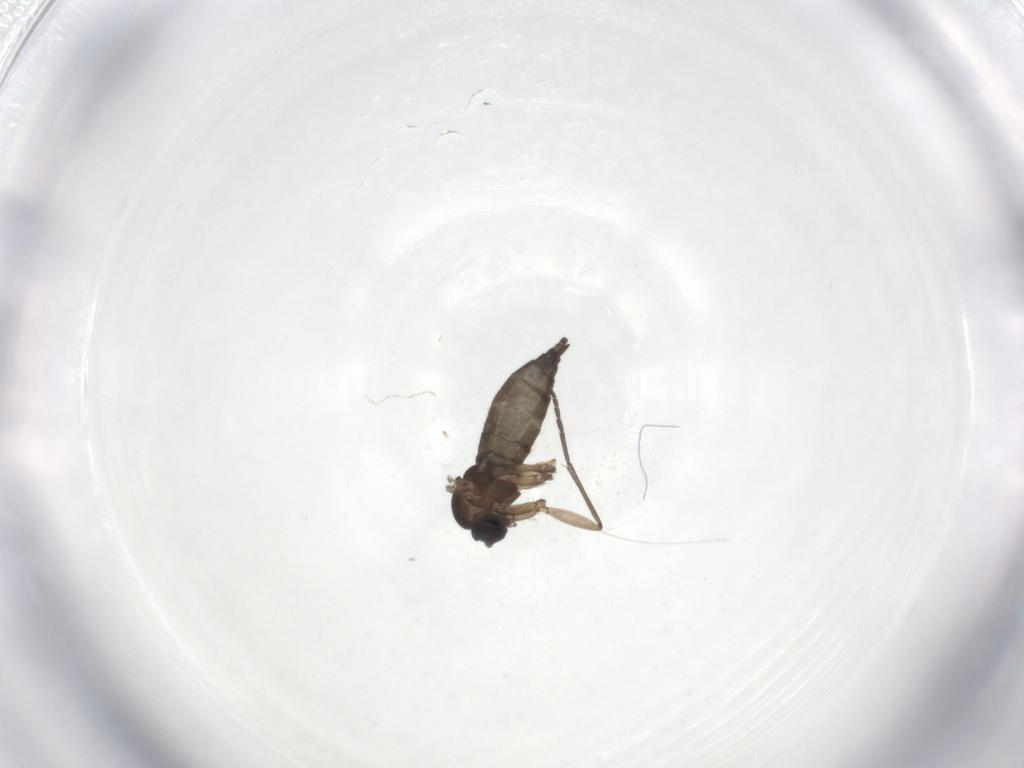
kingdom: Animalia
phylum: Arthropoda
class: Insecta
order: Diptera
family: Sciaridae
